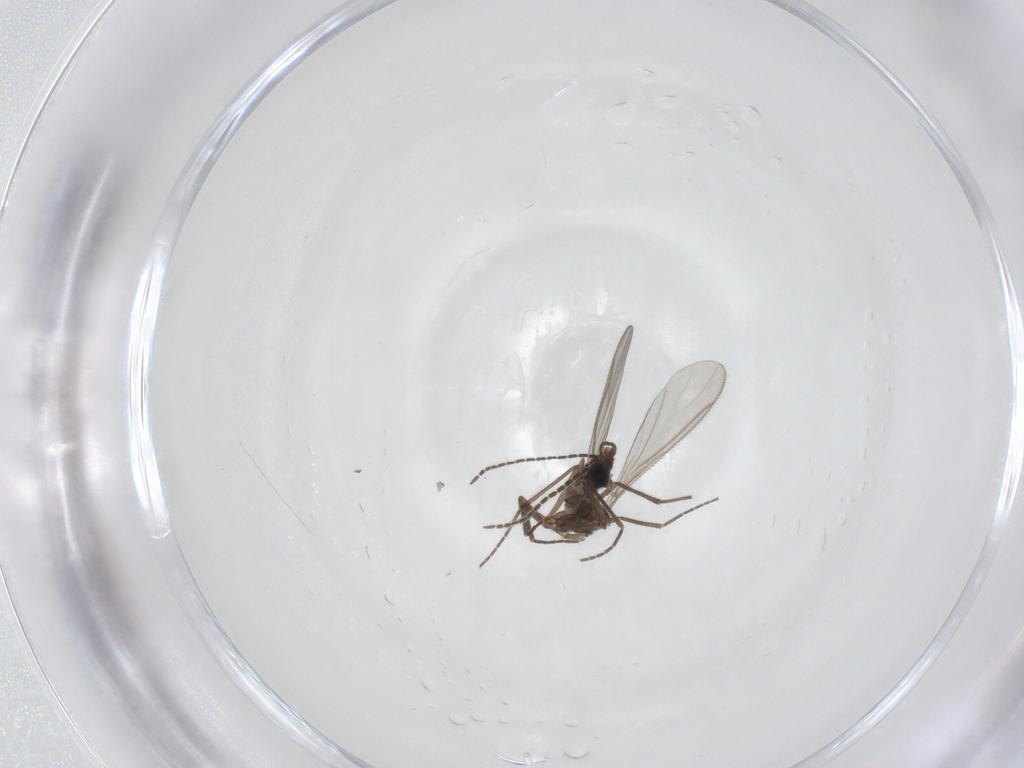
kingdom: Animalia
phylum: Arthropoda
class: Insecta
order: Diptera
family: Sciaridae
